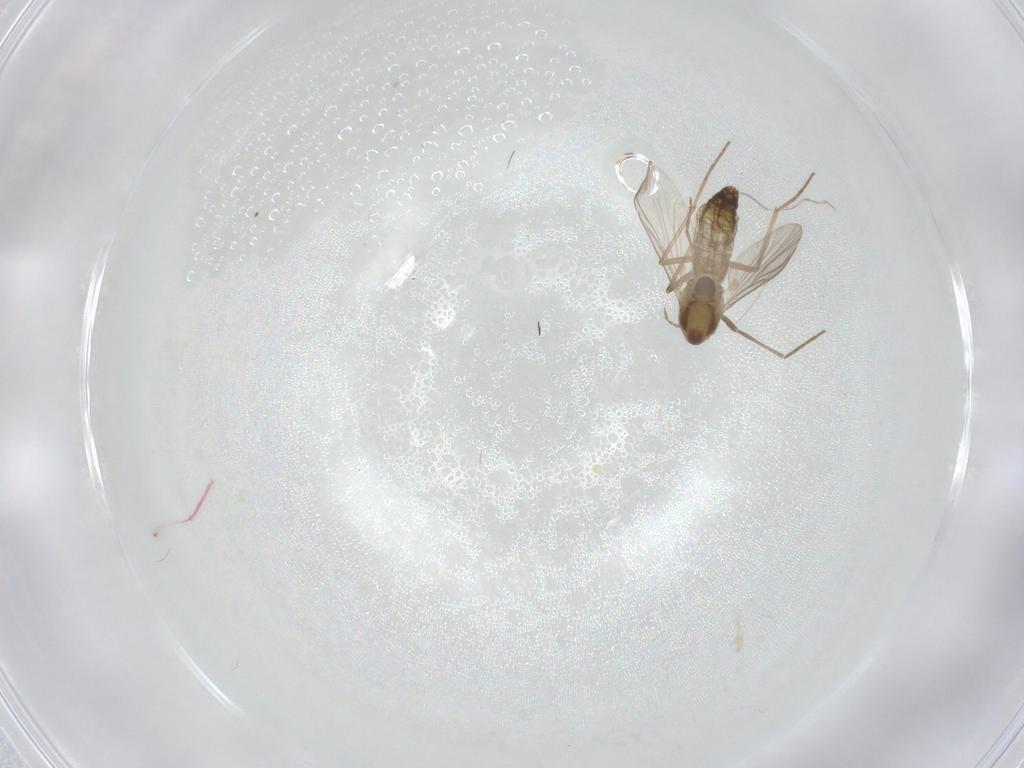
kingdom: Animalia
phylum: Arthropoda
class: Insecta
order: Diptera
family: Chironomidae
